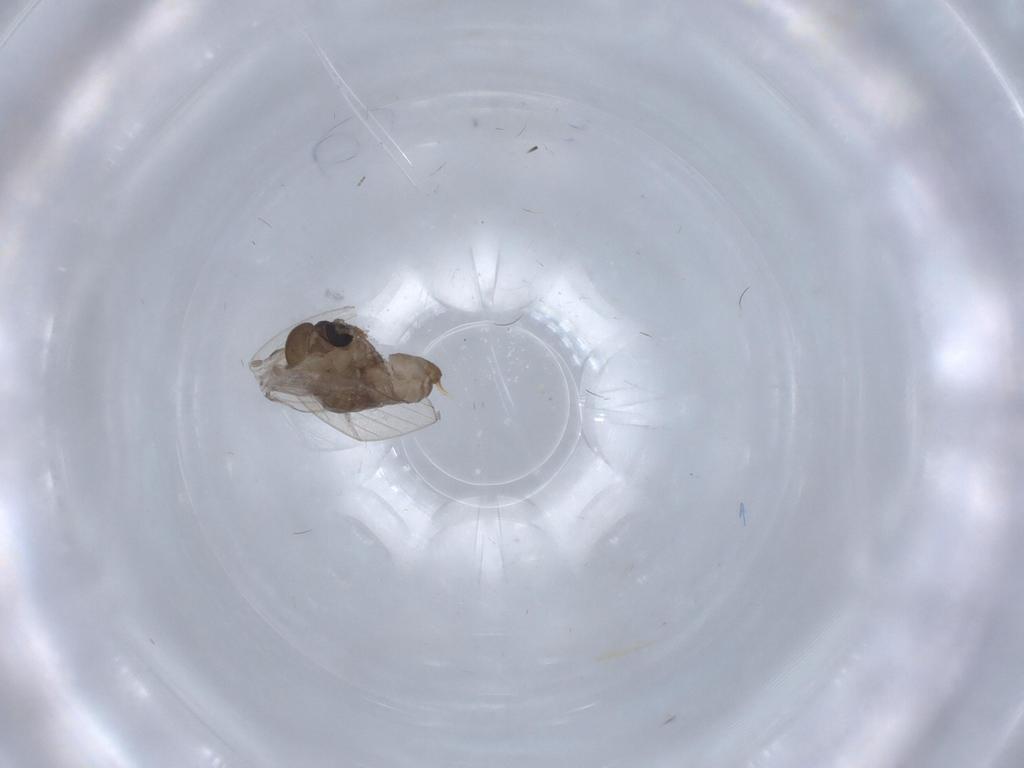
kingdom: Animalia
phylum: Arthropoda
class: Insecta
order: Diptera
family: Psychodidae
